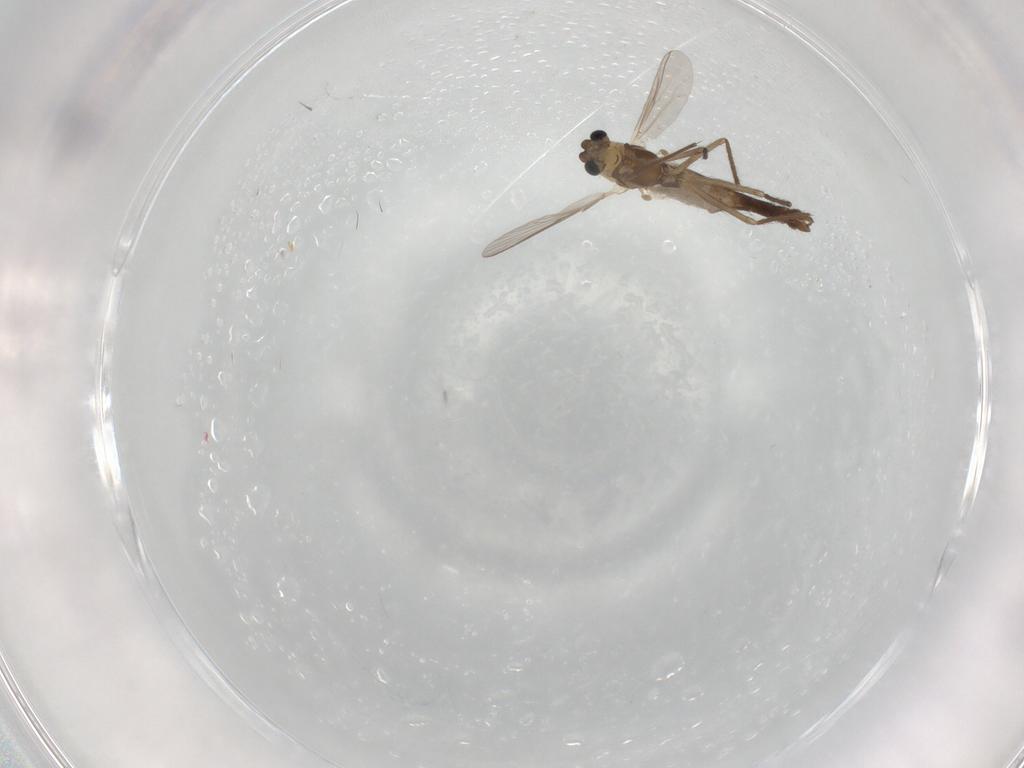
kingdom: Animalia
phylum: Arthropoda
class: Insecta
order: Diptera
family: Chironomidae
